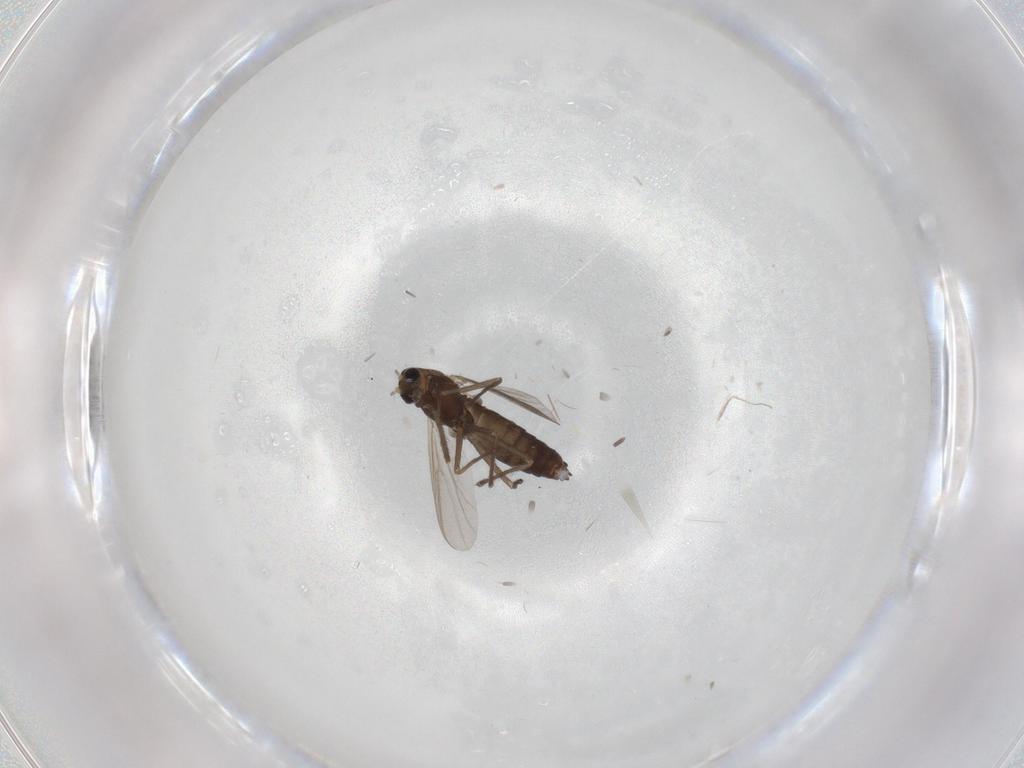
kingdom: Animalia
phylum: Arthropoda
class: Insecta
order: Diptera
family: Chironomidae
